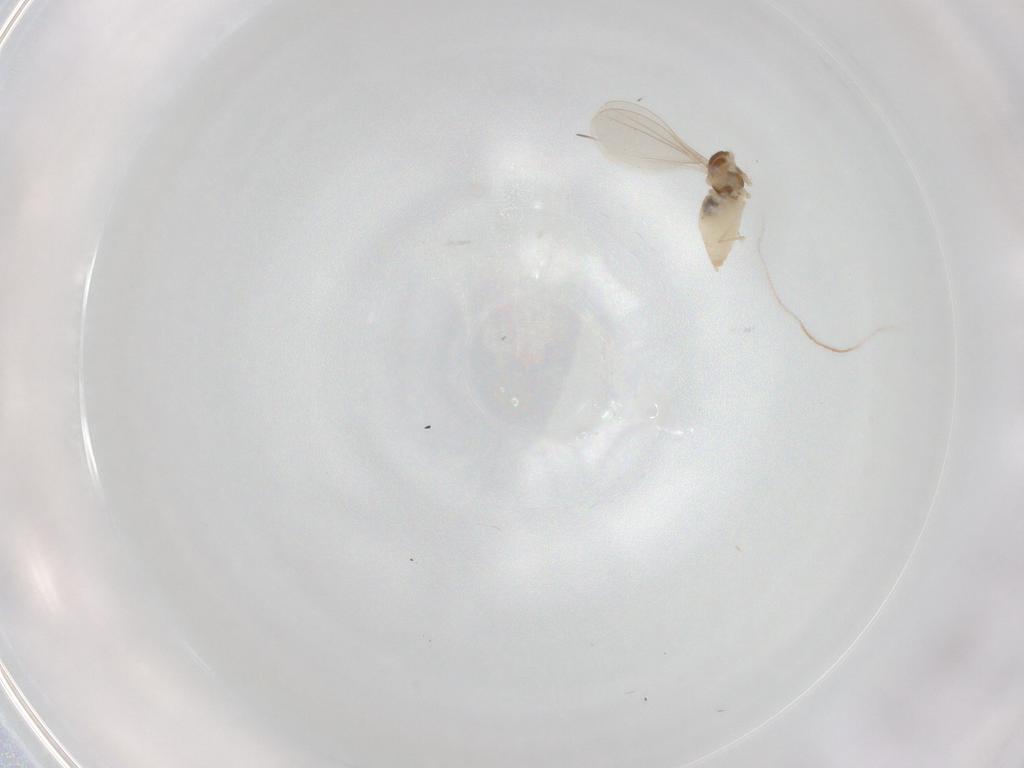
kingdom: Animalia
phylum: Arthropoda
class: Insecta
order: Diptera
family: Cecidomyiidae
